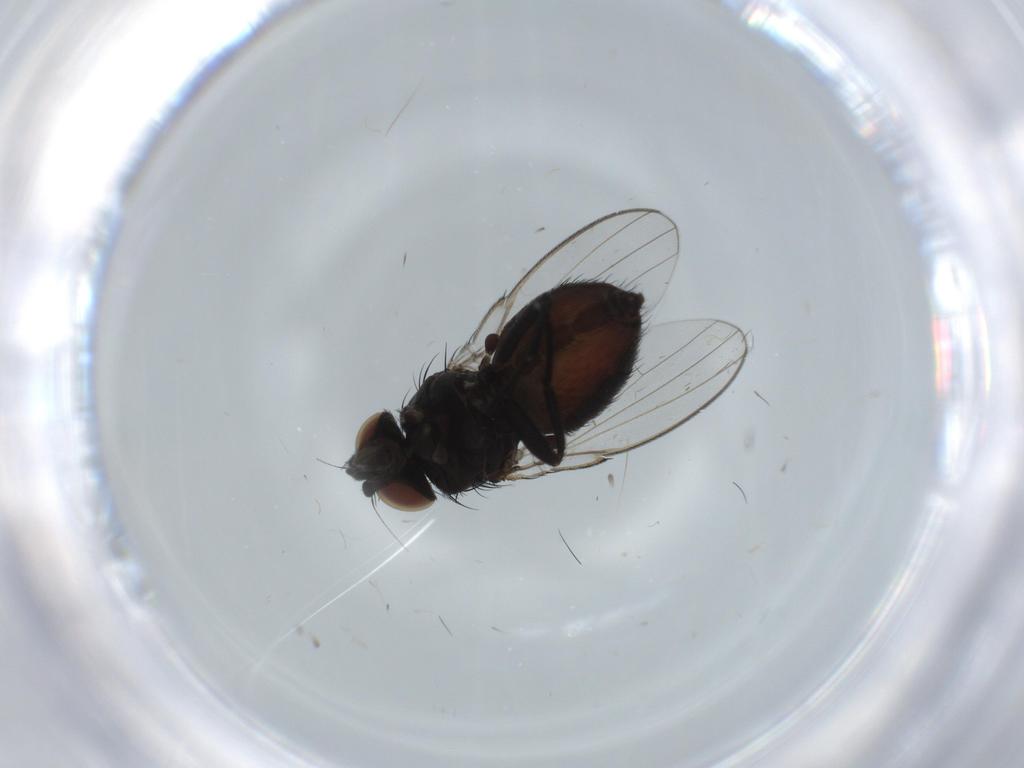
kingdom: Animalia
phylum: Arthropoda
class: Insecta
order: Diptera
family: Milichiidae
